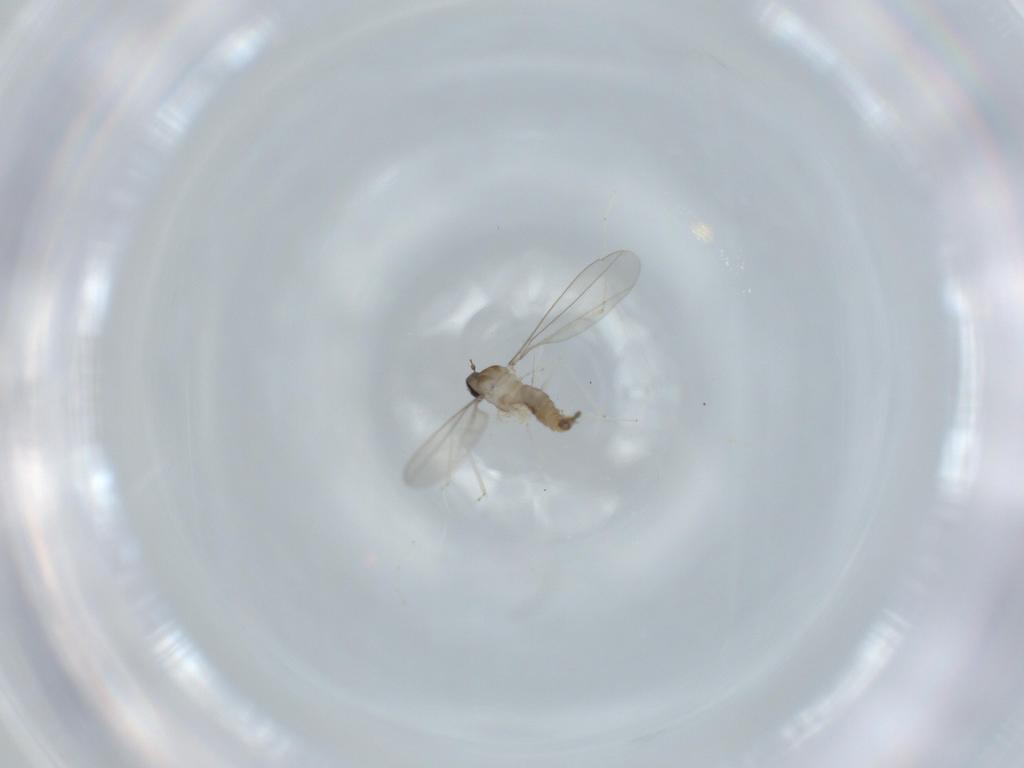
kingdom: Animalia
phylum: Arthropoda
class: Insecta
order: Diptera
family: Cecidomyiidae
